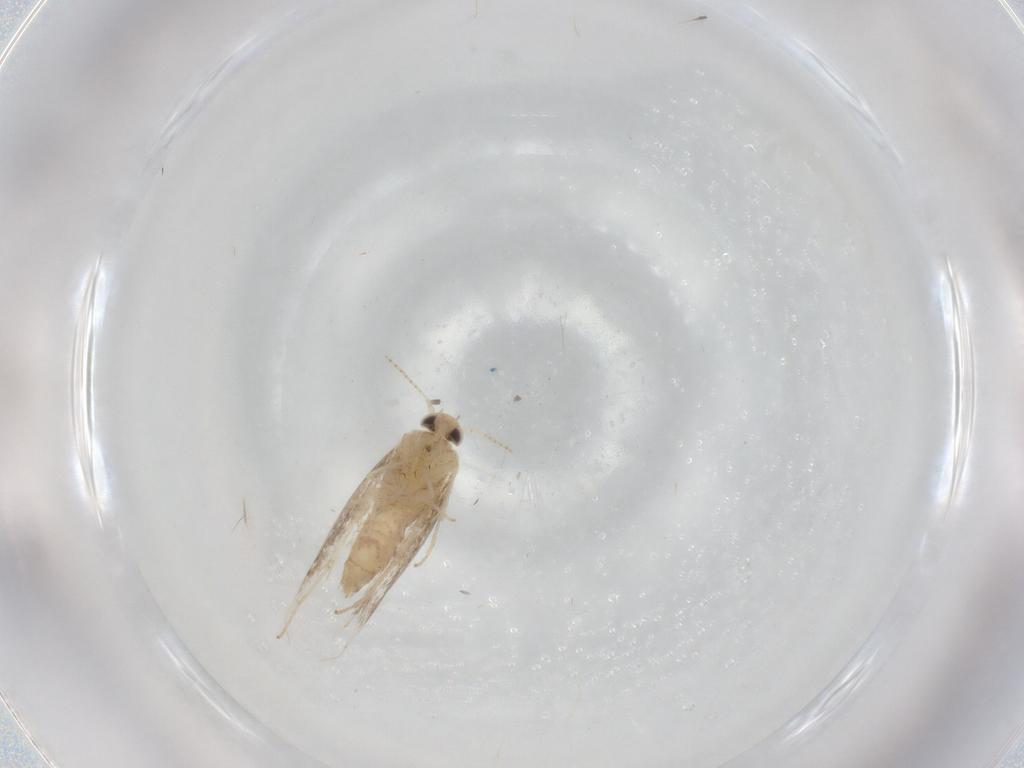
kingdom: Animalia
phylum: Arthropoda
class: Insecta
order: Lepidoptera
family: Gracillariidae
